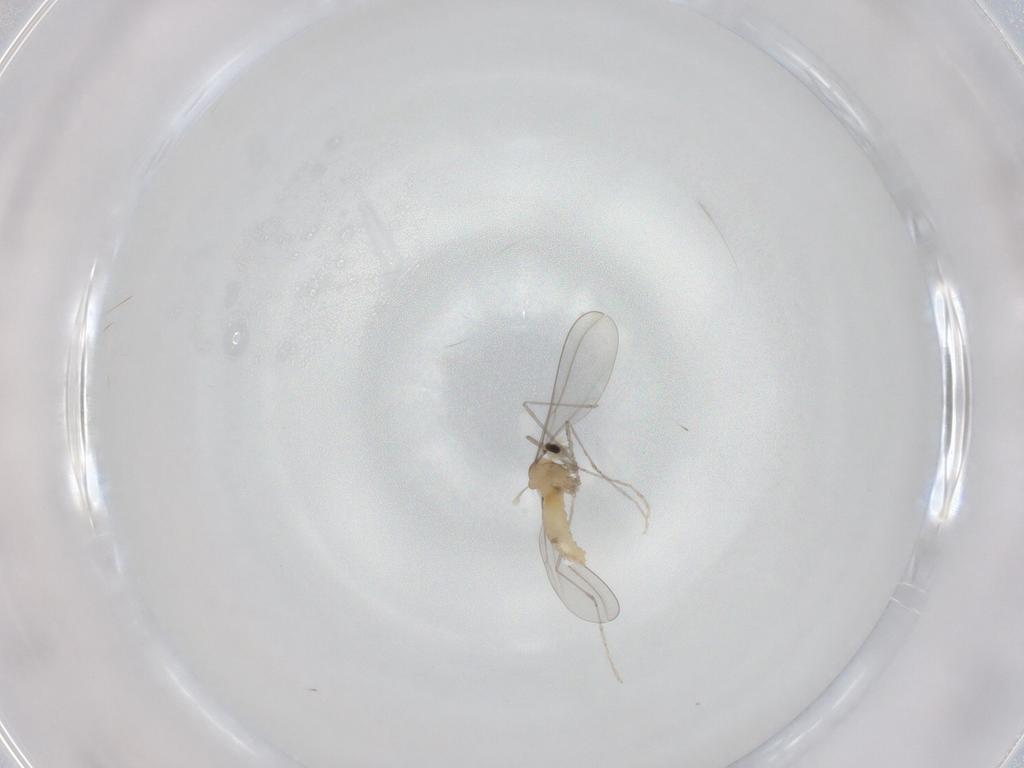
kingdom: Animalia
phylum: Arthropoda
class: Insecta
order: Diptera
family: Cecidomyiidae
